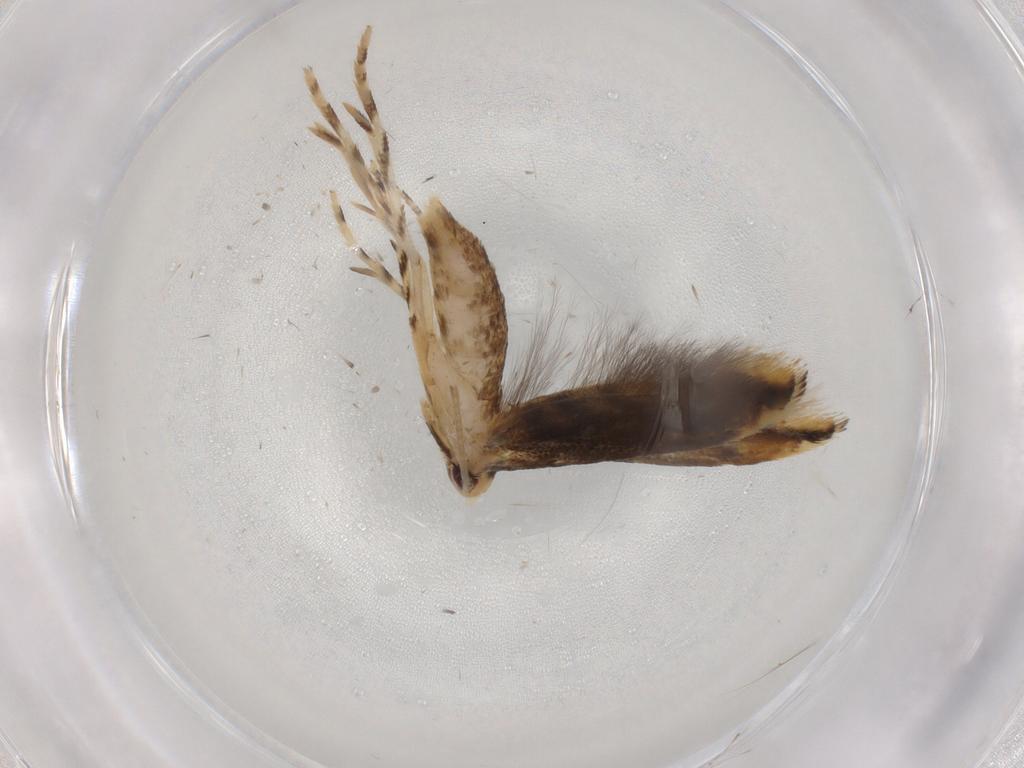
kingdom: Animalia
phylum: Arthropoda
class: Insecta
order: Lepidoptera
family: Momphidae
